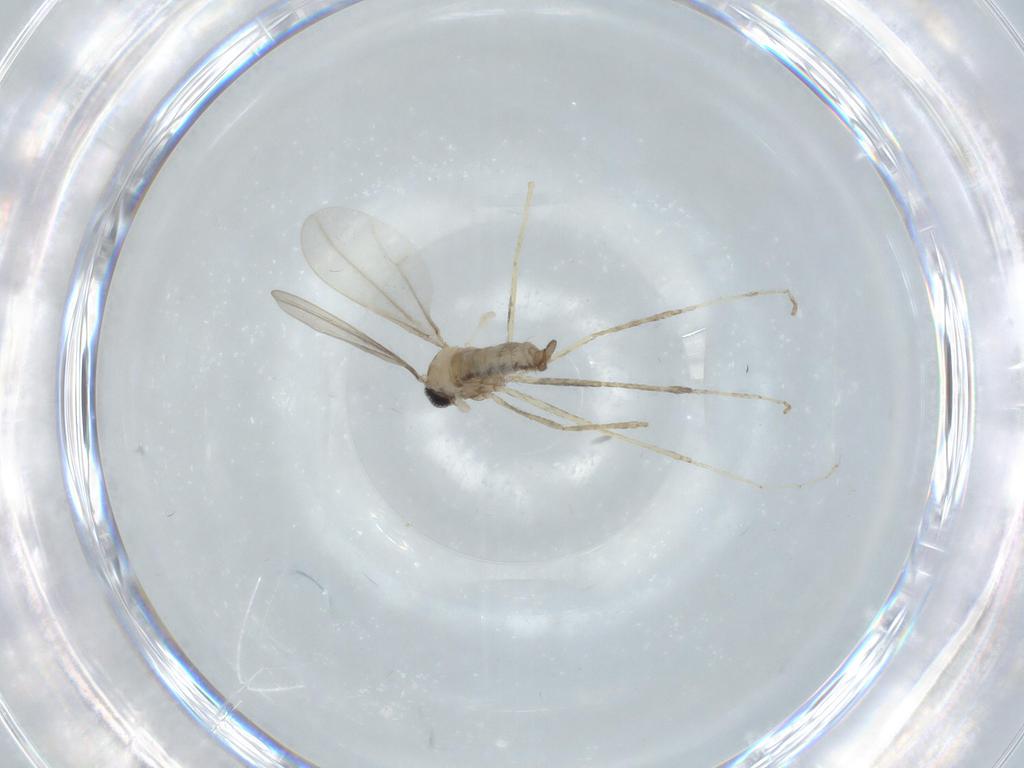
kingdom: Animalia
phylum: Arthropoda
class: Insecta
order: Diptera
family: Cecidomyiidae
